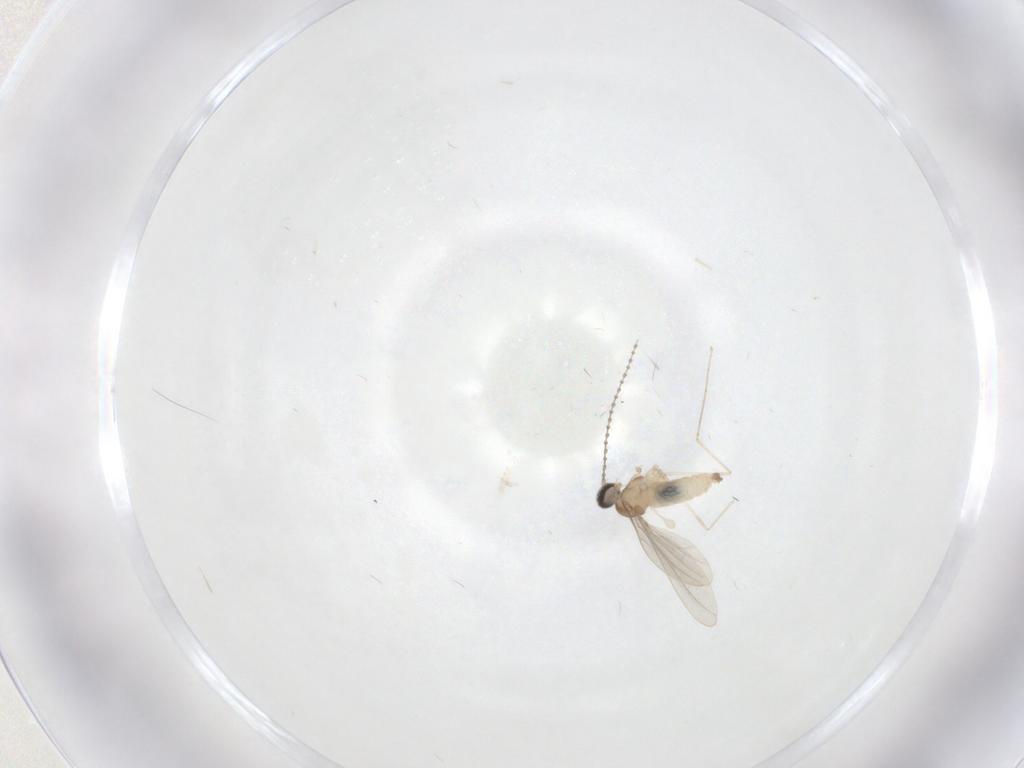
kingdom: Animalia
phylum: Arthropoda
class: Insecta
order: Diptera
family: Cecidomyiidae
